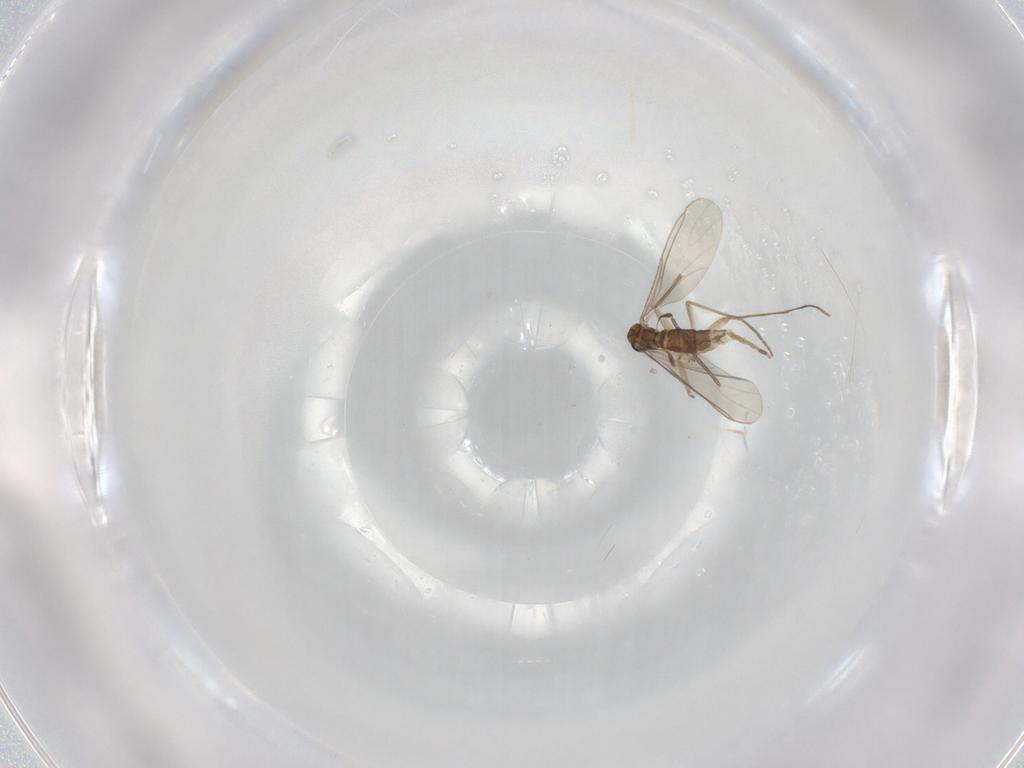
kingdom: Animalia
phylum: Arthropoda
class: Insecta
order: Diptera
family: Sciaridae
